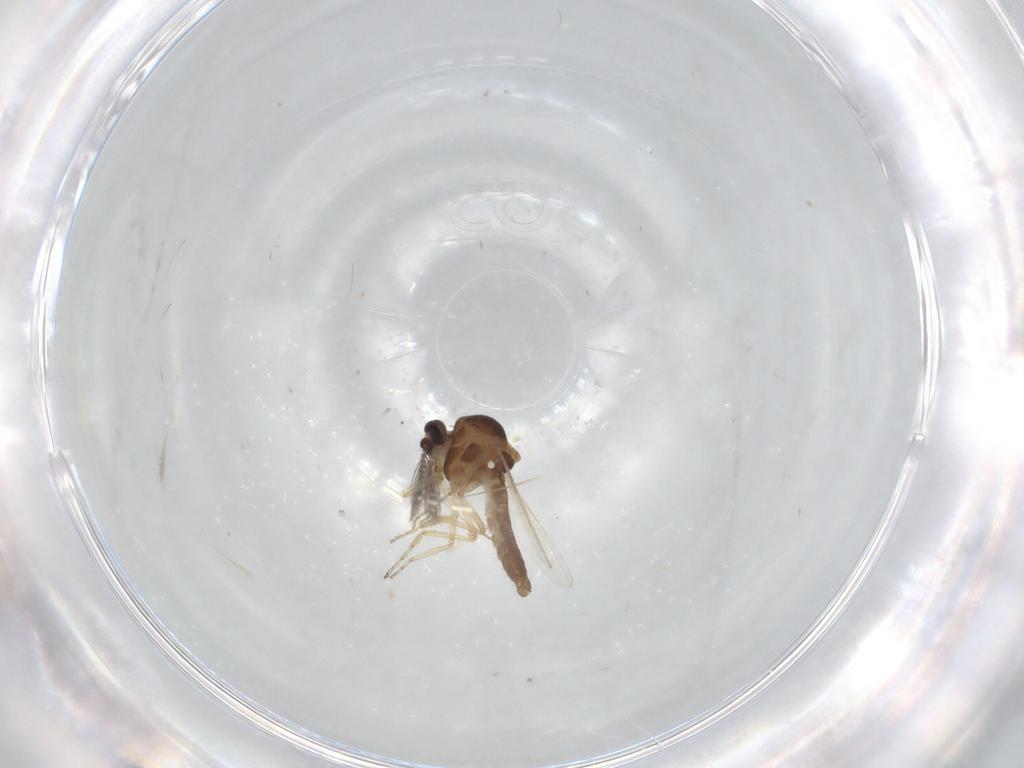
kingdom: Animalia
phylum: Arthropoda
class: Insecta
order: Diptera
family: Ceratopogonidae
